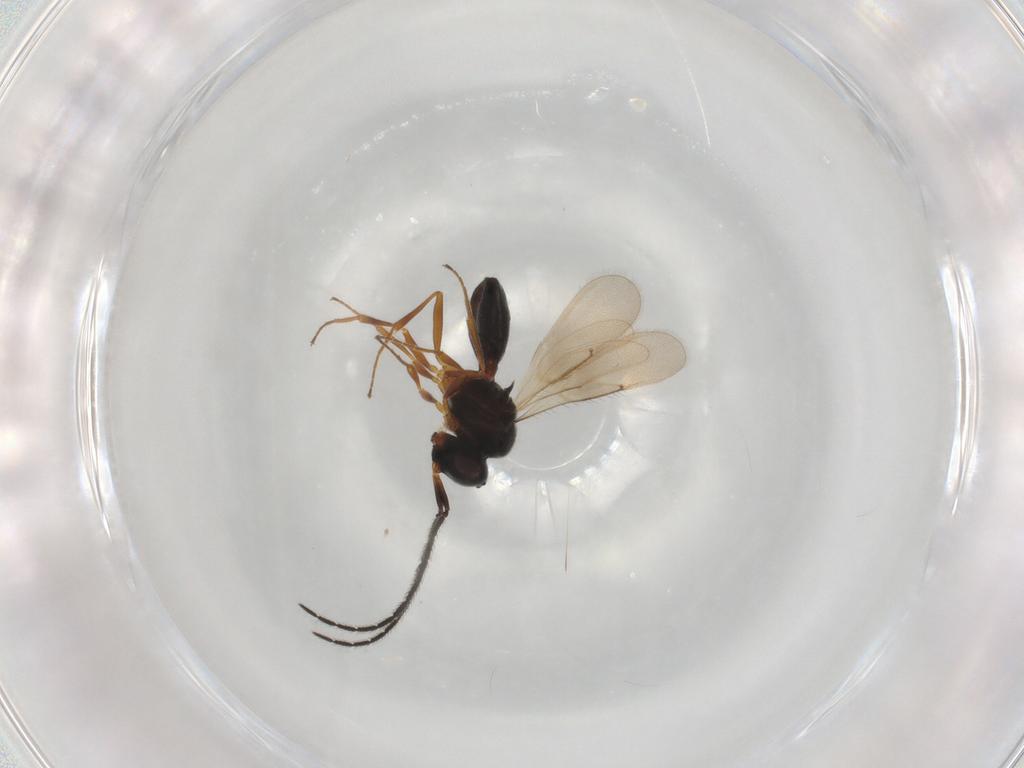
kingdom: Animalia
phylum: Arthropoda
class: Insecta
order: Hymenoptera
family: Scelionidae
